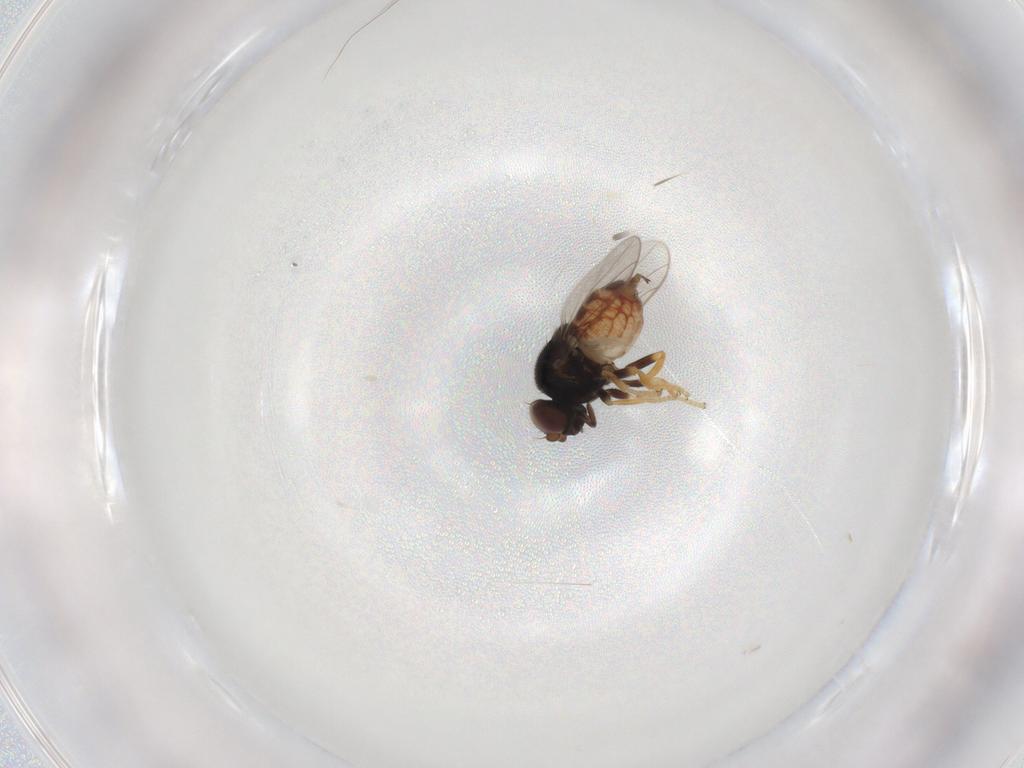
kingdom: Animalia
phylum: Arthropoda
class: Insecta
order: Diptera
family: Chloropidae
